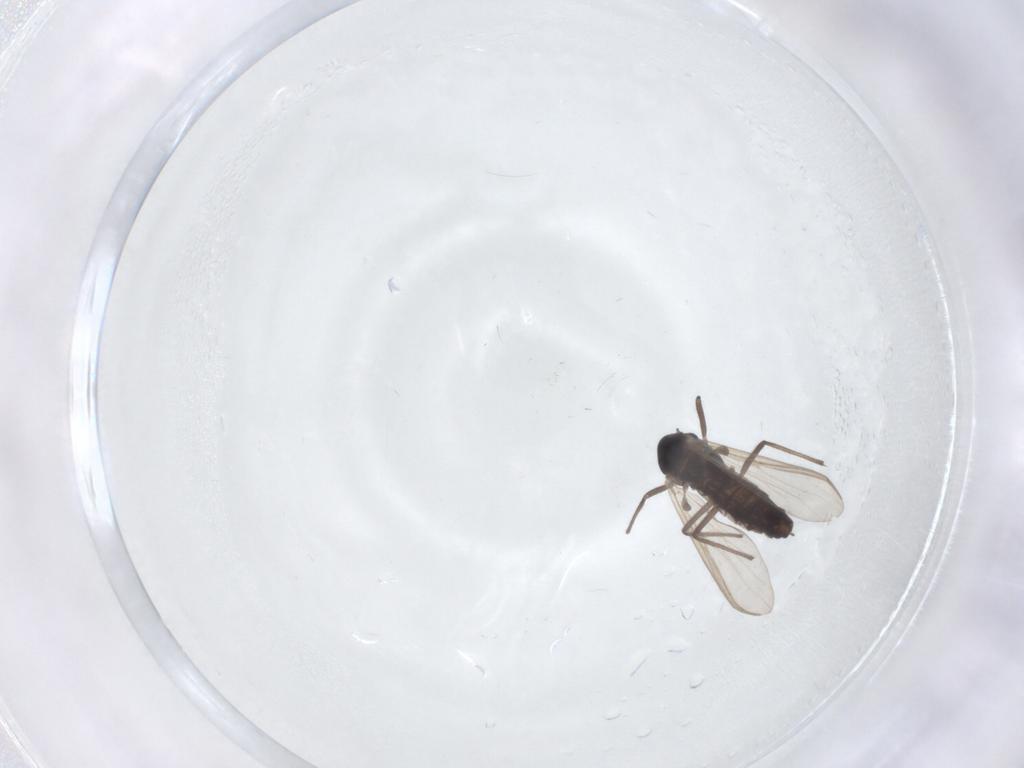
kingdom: Animalia
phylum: Arthropoda
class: Insecta
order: Diptera
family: Chironomidae
